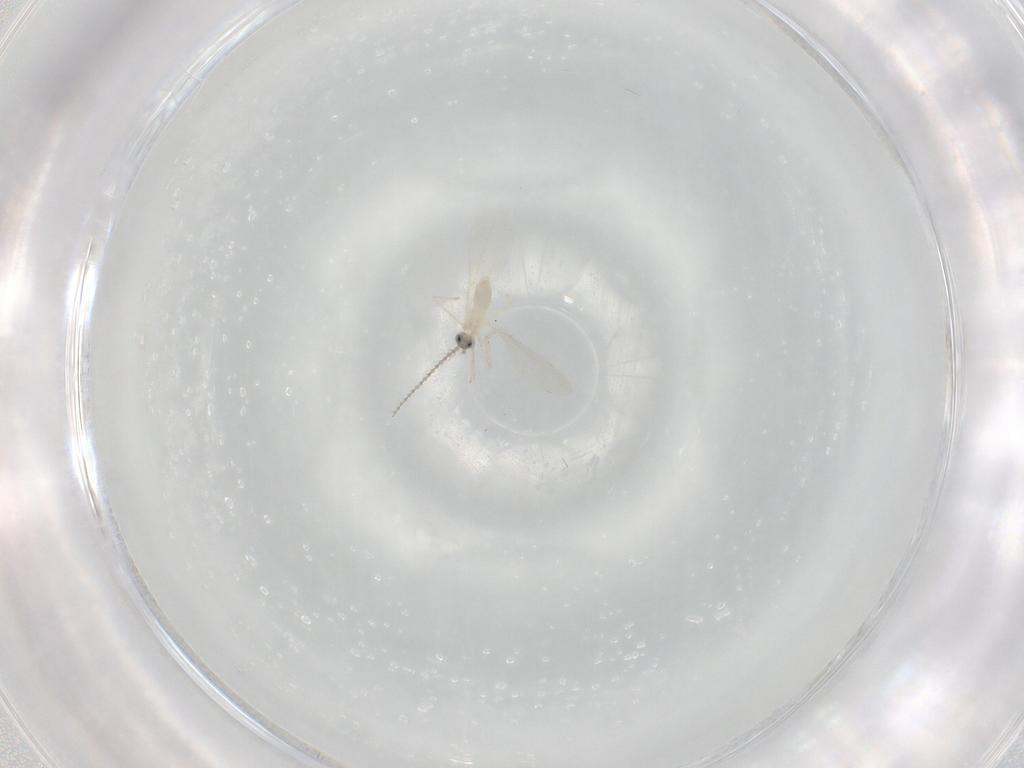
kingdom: Animalia
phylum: Arthropoda
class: Insecta
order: Diptera
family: Cecidomyiidae
